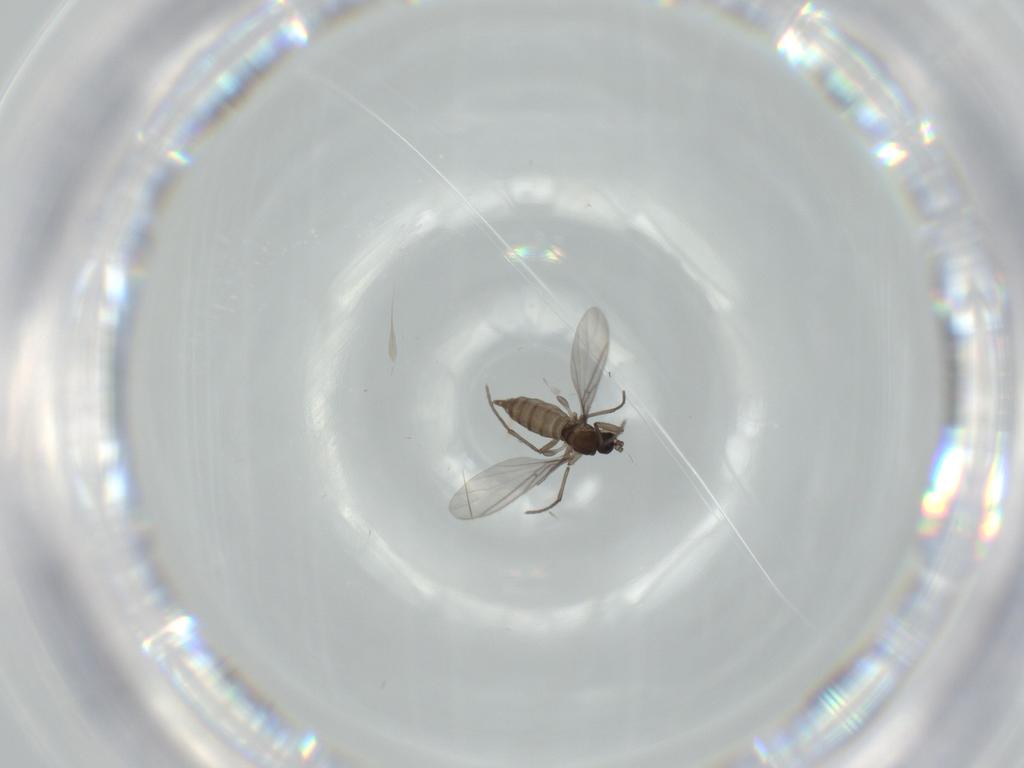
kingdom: Animalia
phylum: Arthropoda
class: Insecta
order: Diptera
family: Sciaridae
